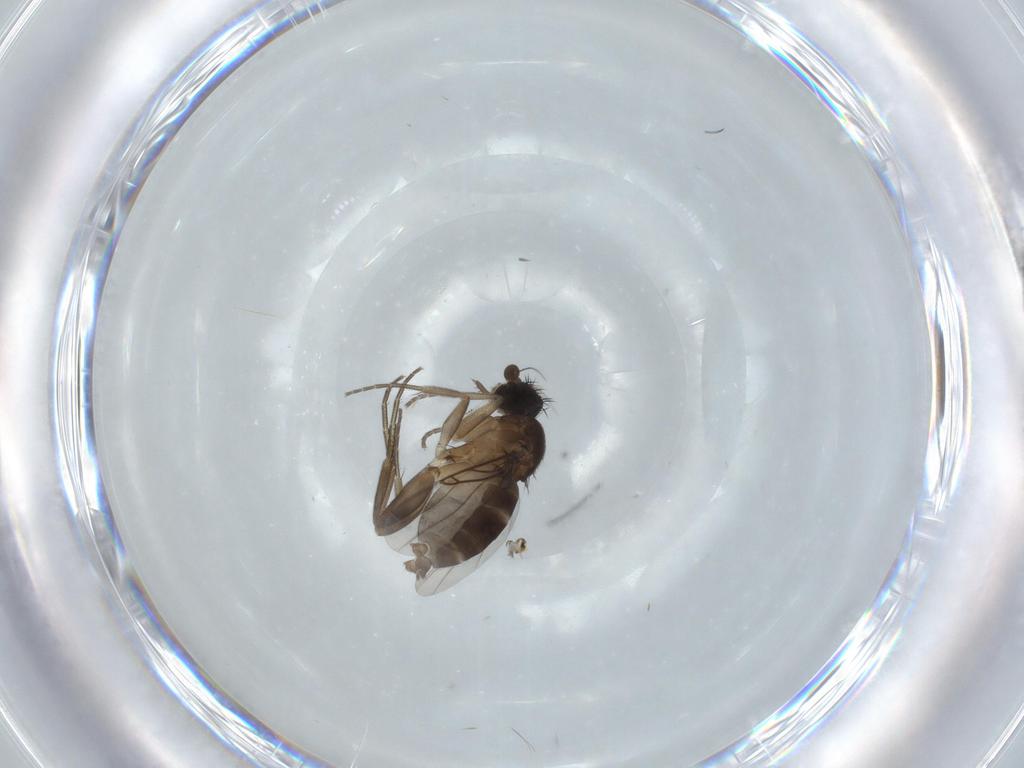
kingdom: Animalia
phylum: Arthropoda
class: Insecta
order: Diptera
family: Phoridae
